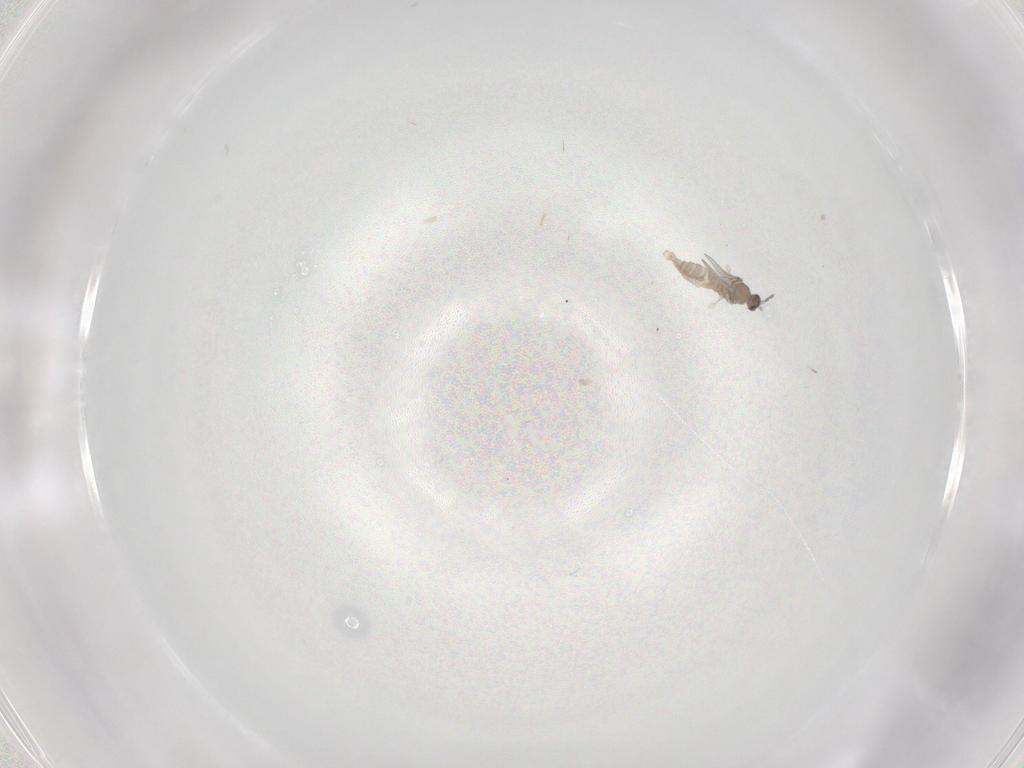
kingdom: Animalia
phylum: Arthropoda
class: Insecta
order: Diptera
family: Cecidomyiidae
